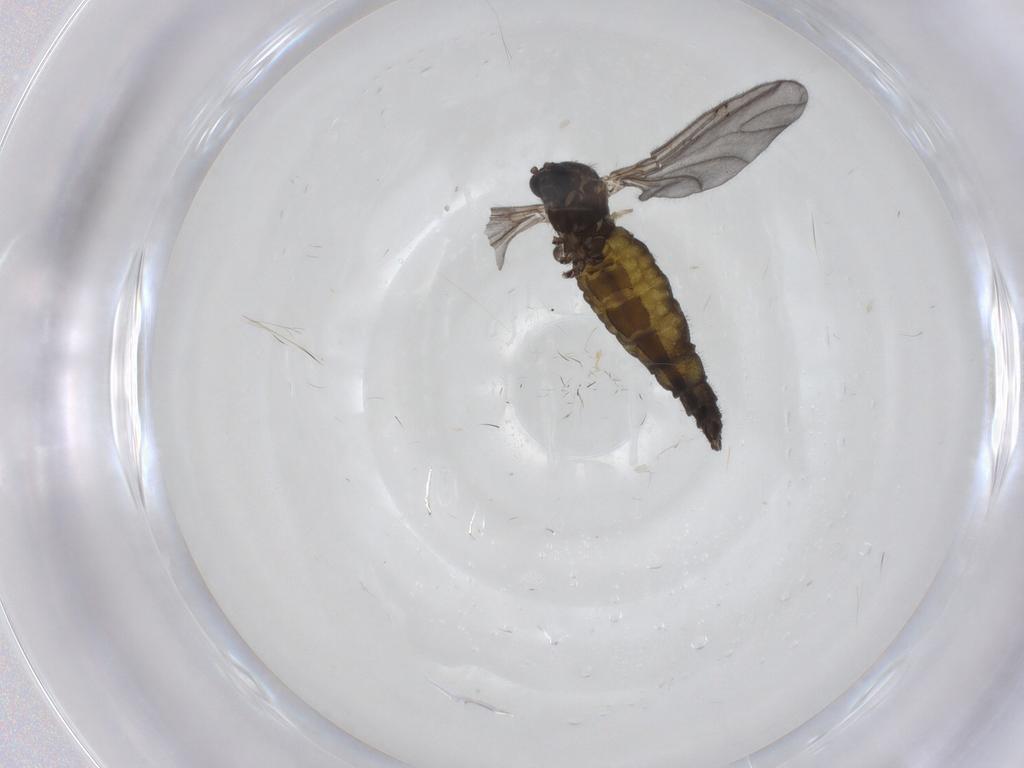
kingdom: Animalia
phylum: Arthropoda
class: Insecta
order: Diptera
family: Sciaridae
